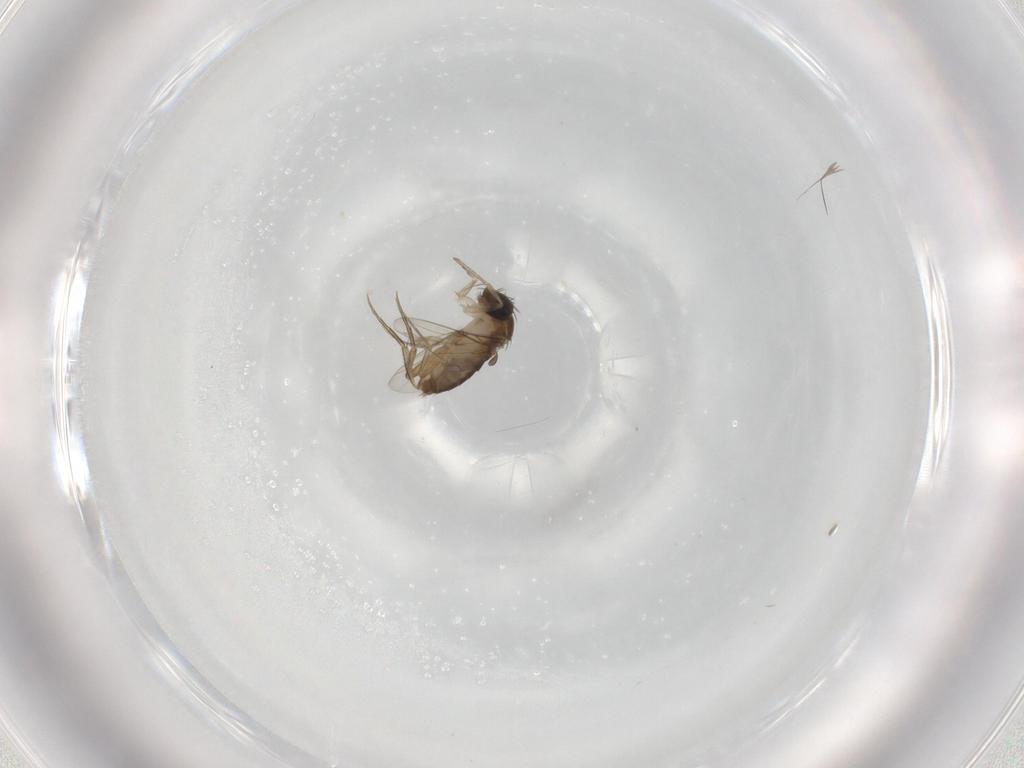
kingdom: Animalia
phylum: Arthropoda
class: Insecta
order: Diptera
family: Phoridae
